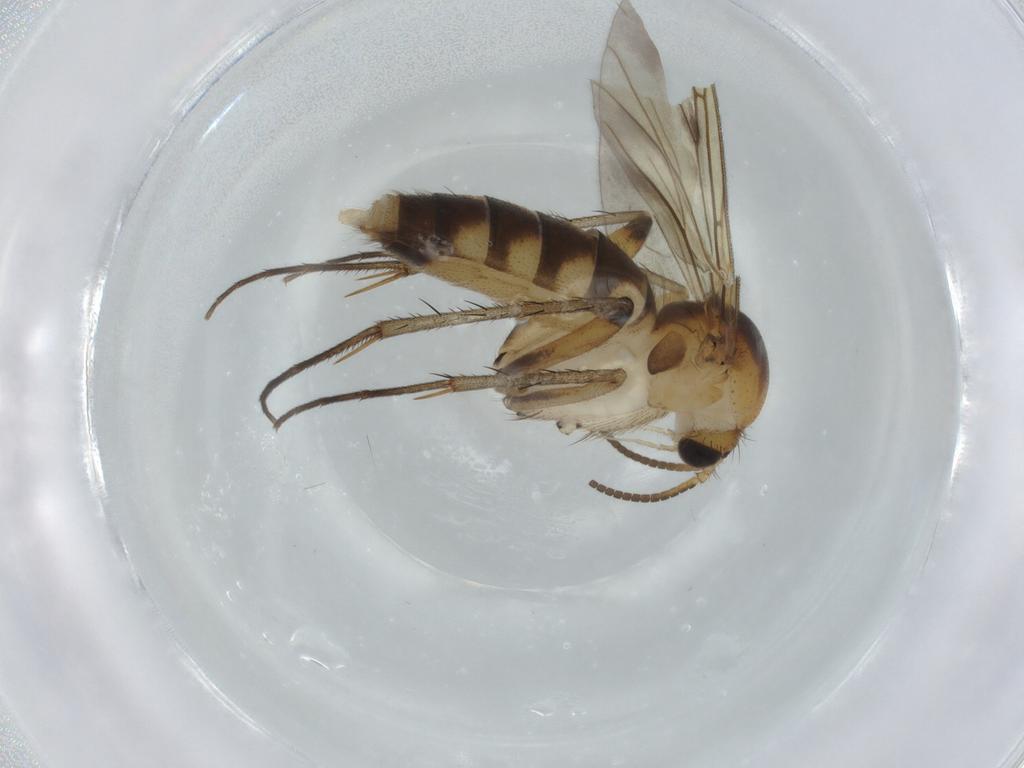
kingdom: Animalia
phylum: Arthropoda
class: Insecta
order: Diptera
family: Mycetophilidae
